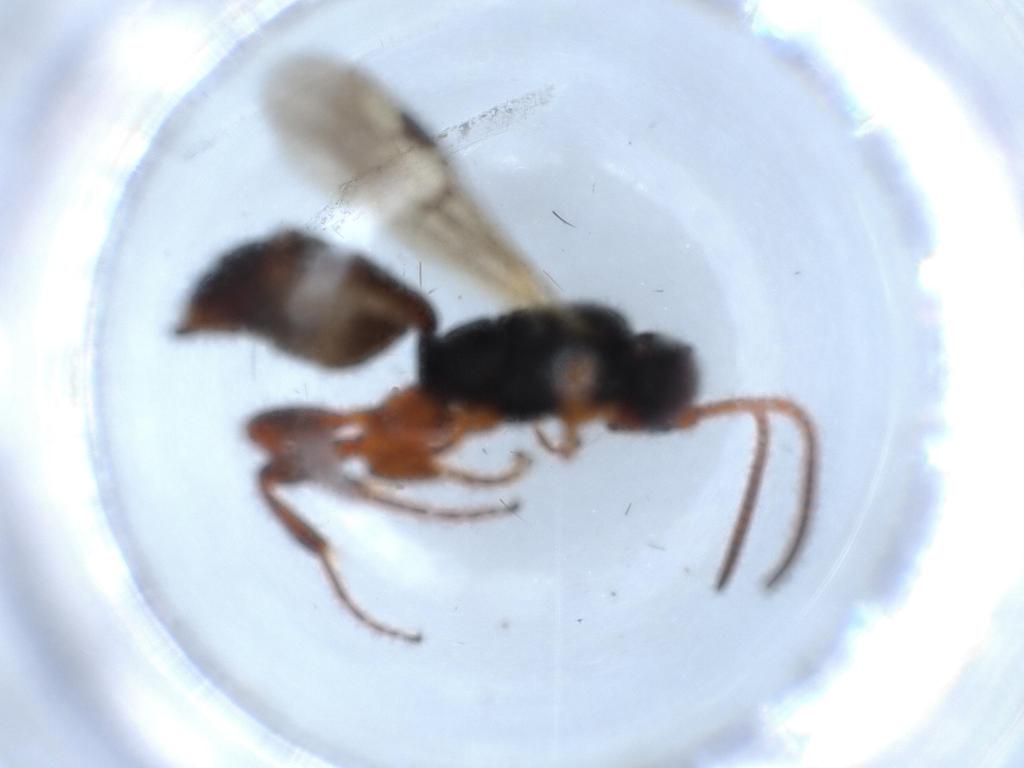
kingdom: Animalia
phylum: Arthropoda
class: Insecta
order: Hymenoptera
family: Ichneumonidae
